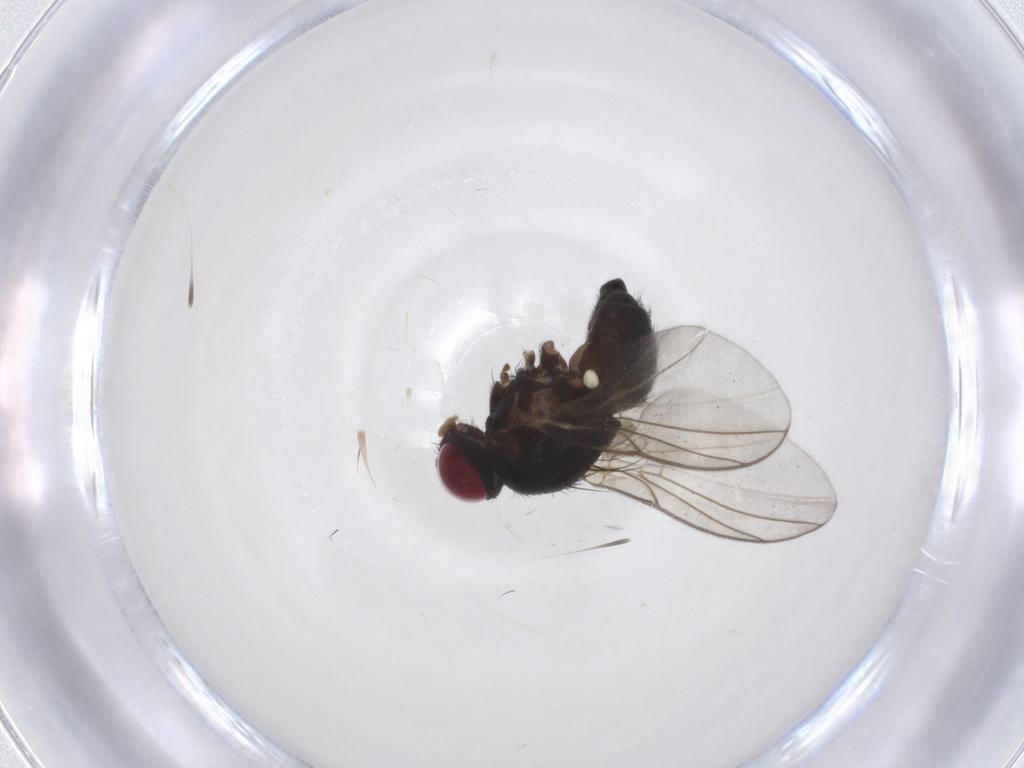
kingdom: Animalia
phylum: Arthropoda
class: Insecta
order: Diptera
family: Agromyzidae
